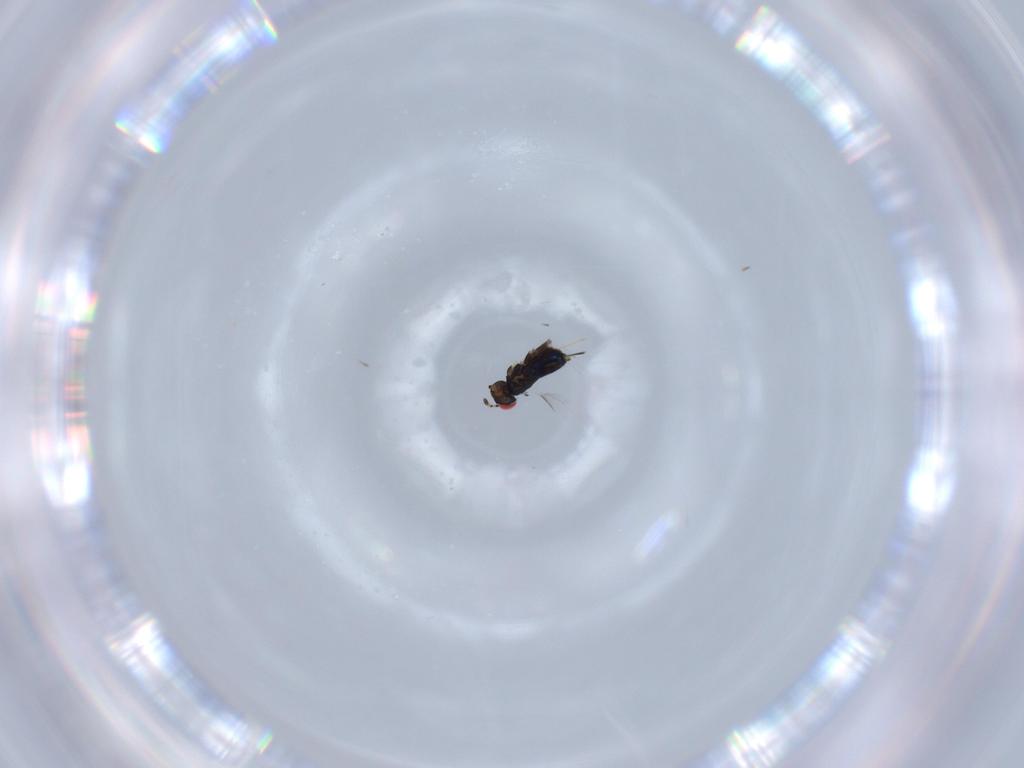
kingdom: Animalia
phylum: Arthropoda
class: Insecta
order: Hymenoptera
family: Azotidae
